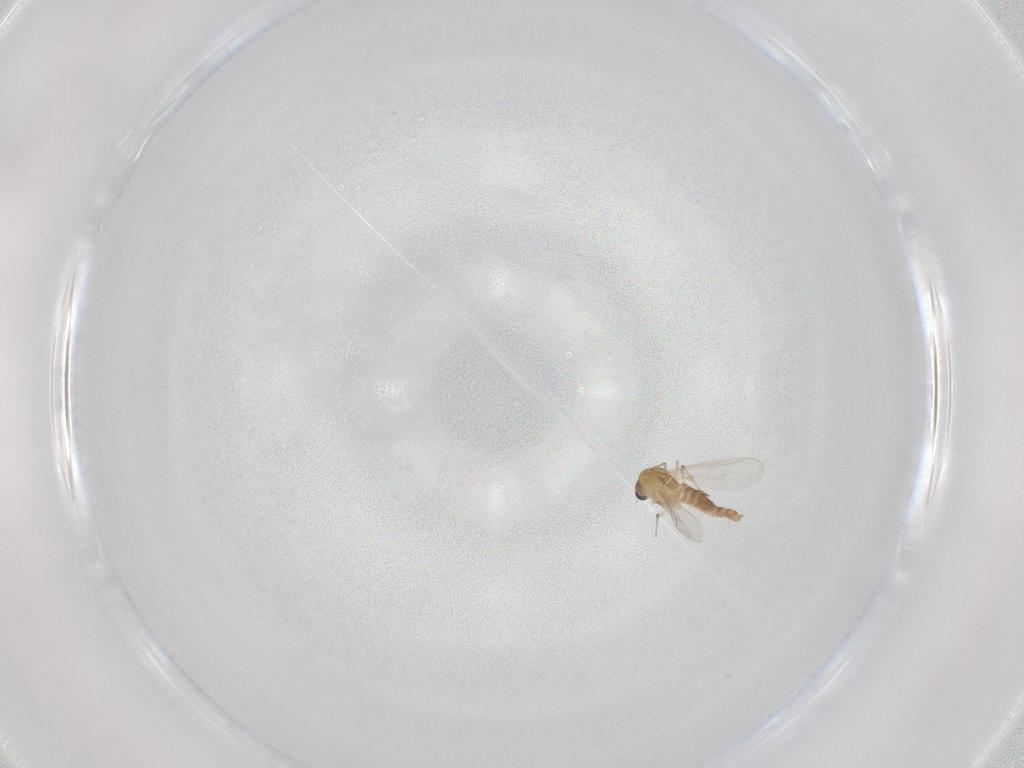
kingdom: Animalia
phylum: Arthropoda
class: Insecta
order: Diptera
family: Chironomidae
